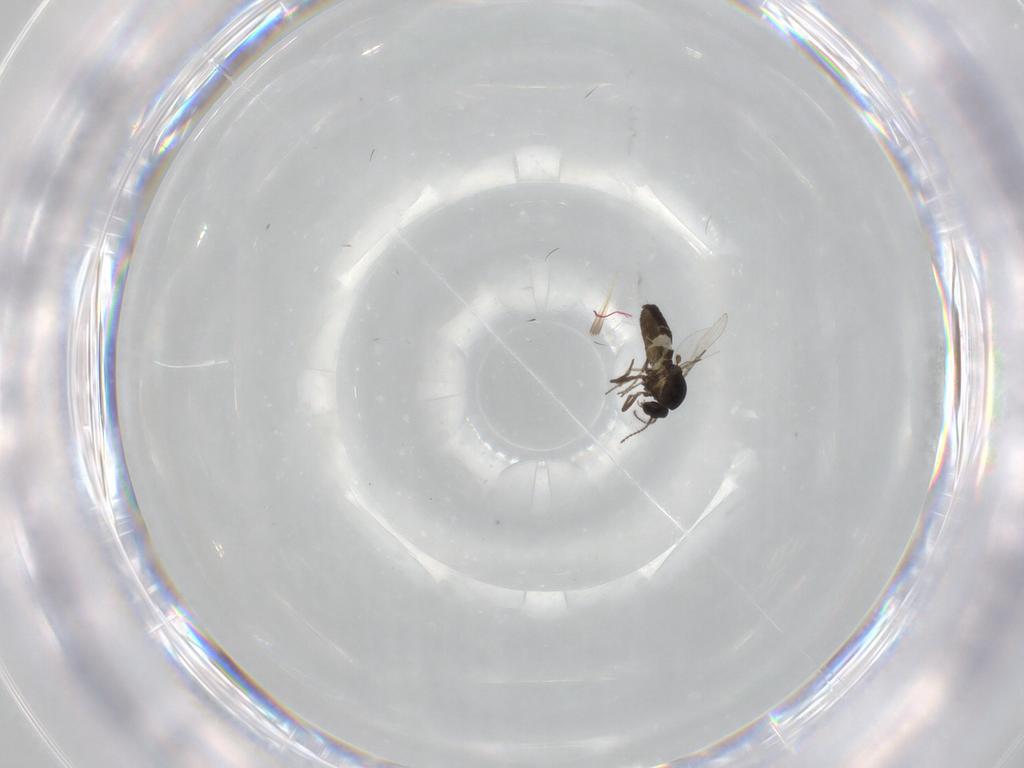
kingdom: Animalia
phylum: Arthropoda
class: Insecta
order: Diptera
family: Ceratopogonidae
